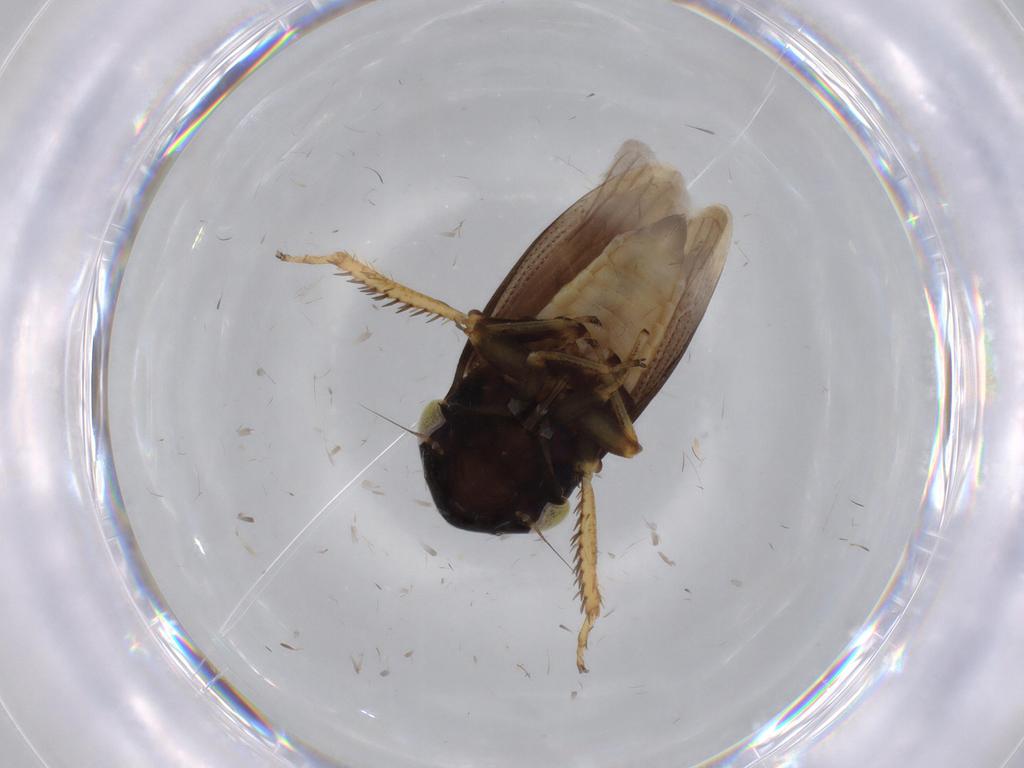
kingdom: Animalia
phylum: Arthropoda
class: Insecta
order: Hemiptera
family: Cicadellidae
